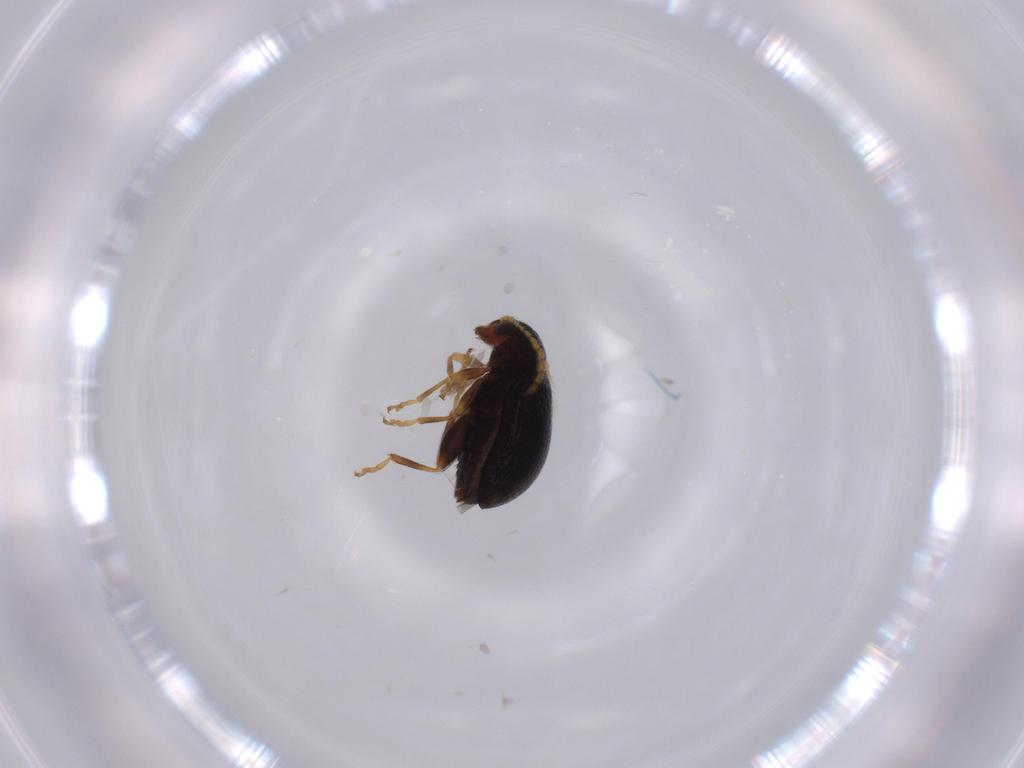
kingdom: Animalia
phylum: Arthropoda
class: Insecta
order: Coleoptera
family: Chrysomelidae
